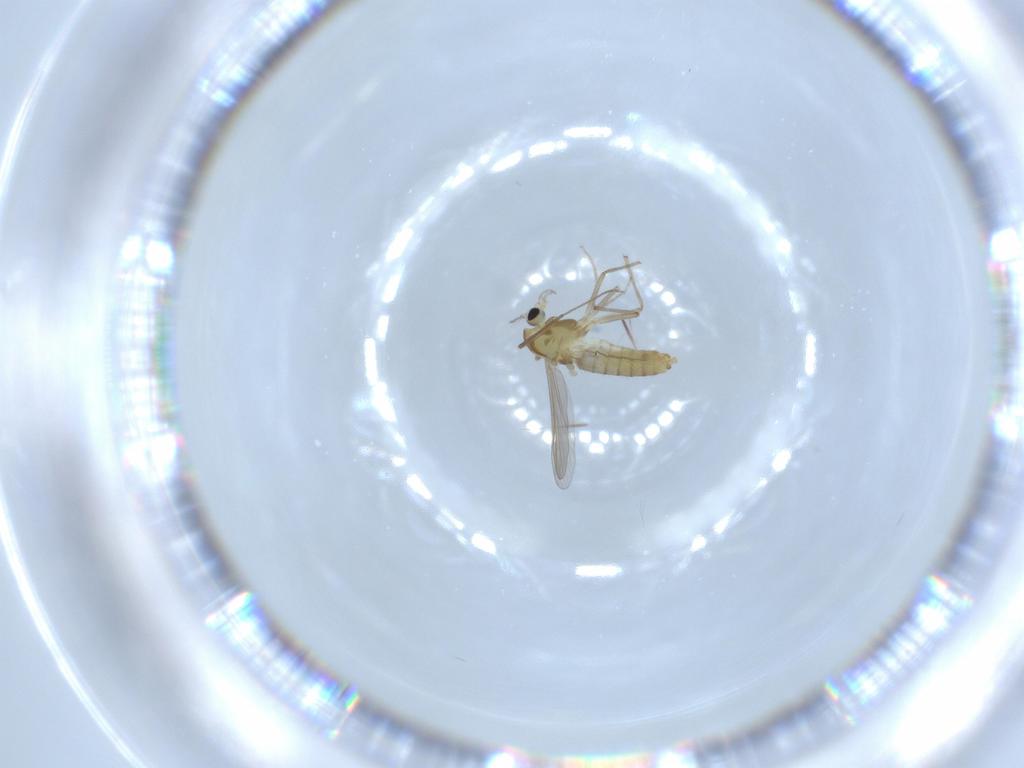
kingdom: Animalia
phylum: Arthropoda
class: Insecta
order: Diptera
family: Chironomidae
